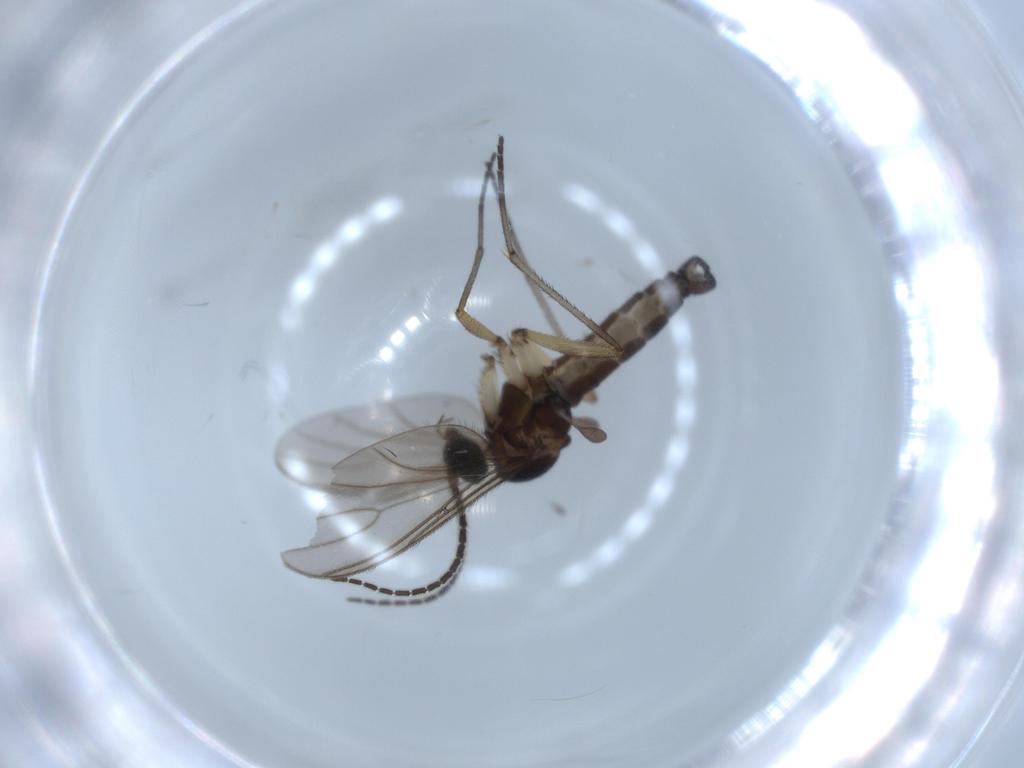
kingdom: Animalia
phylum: Arthropoda
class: Insecta
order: Diptera
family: Sciaridae
